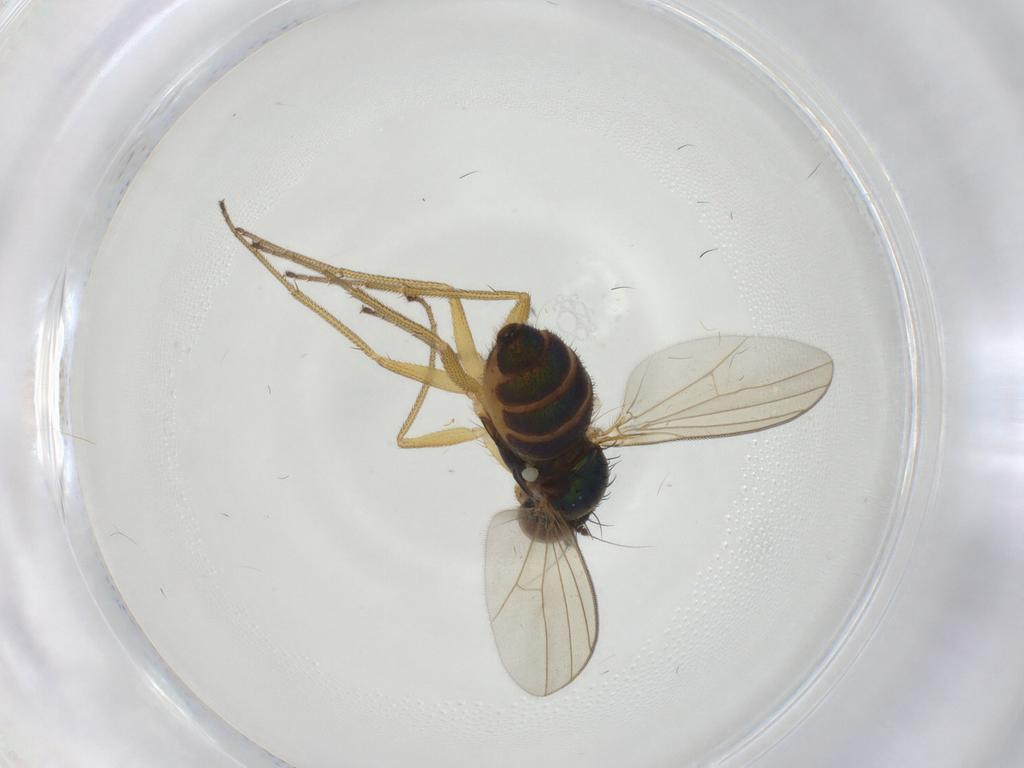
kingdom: Animalia
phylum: Arthropoda
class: Insecta
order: Diptera
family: Dolichopodidae
